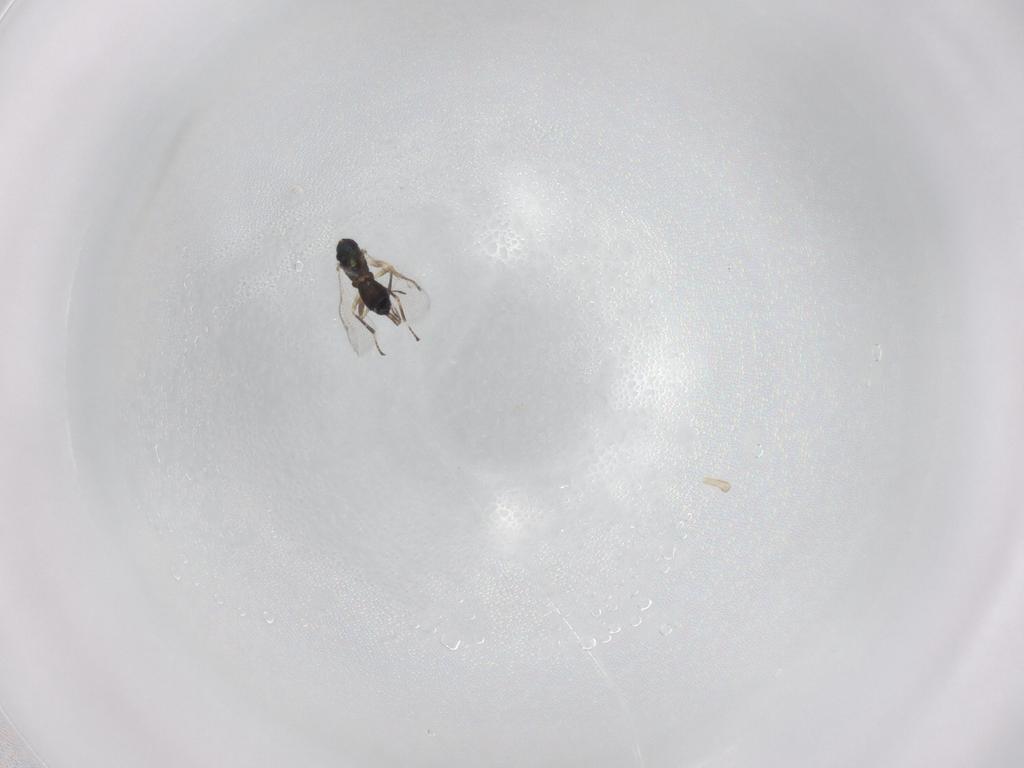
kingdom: Animalia
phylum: Arthropoda
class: Insecta
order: Hymenoptera
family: Eupelmidae
